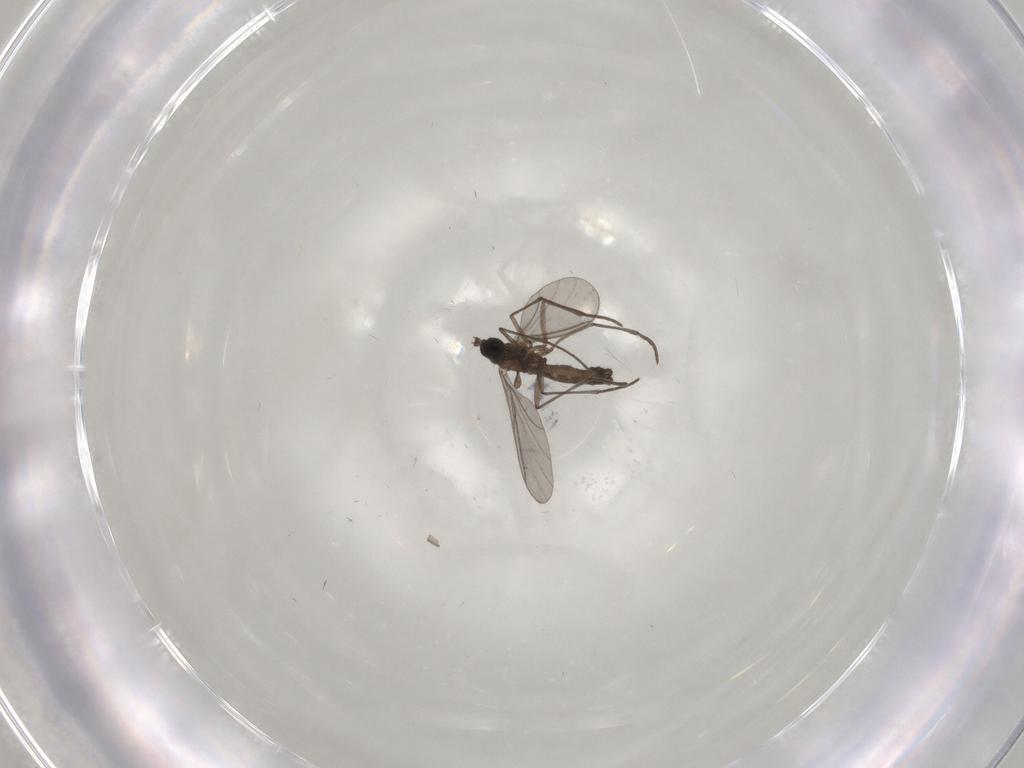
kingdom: Animalia
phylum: Arthropoda
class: Insecta
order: Diptera
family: Sciaridae
